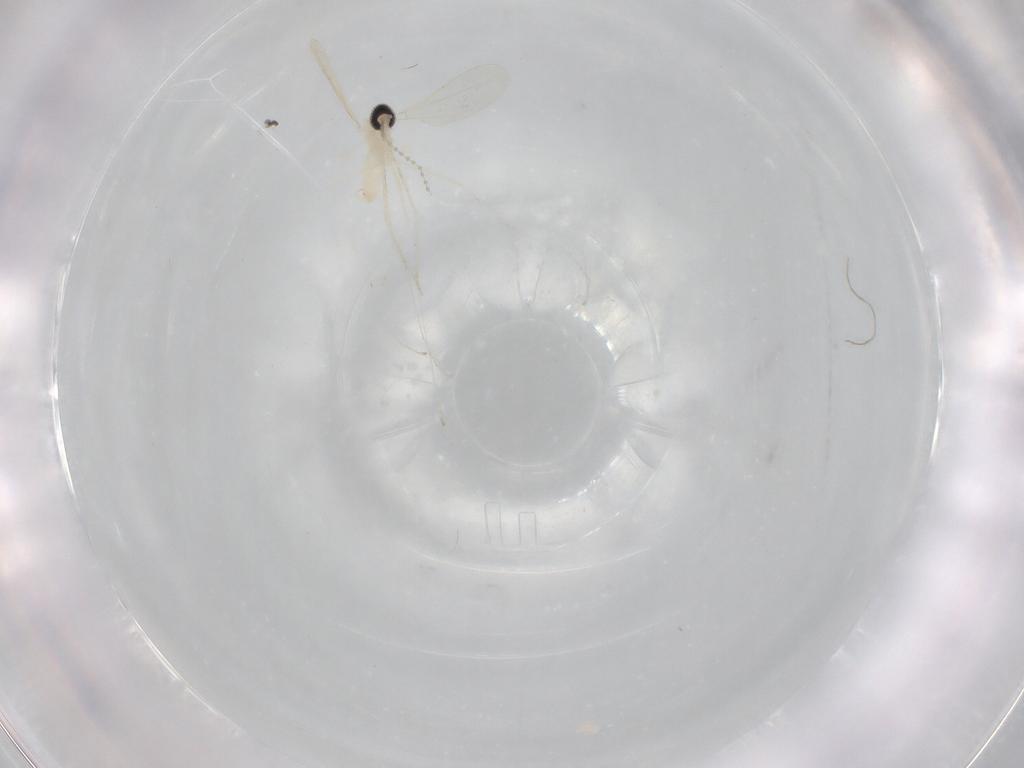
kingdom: Animalia
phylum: Arthropoda
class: Insecta
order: Diptera
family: Cecidomyiidae
